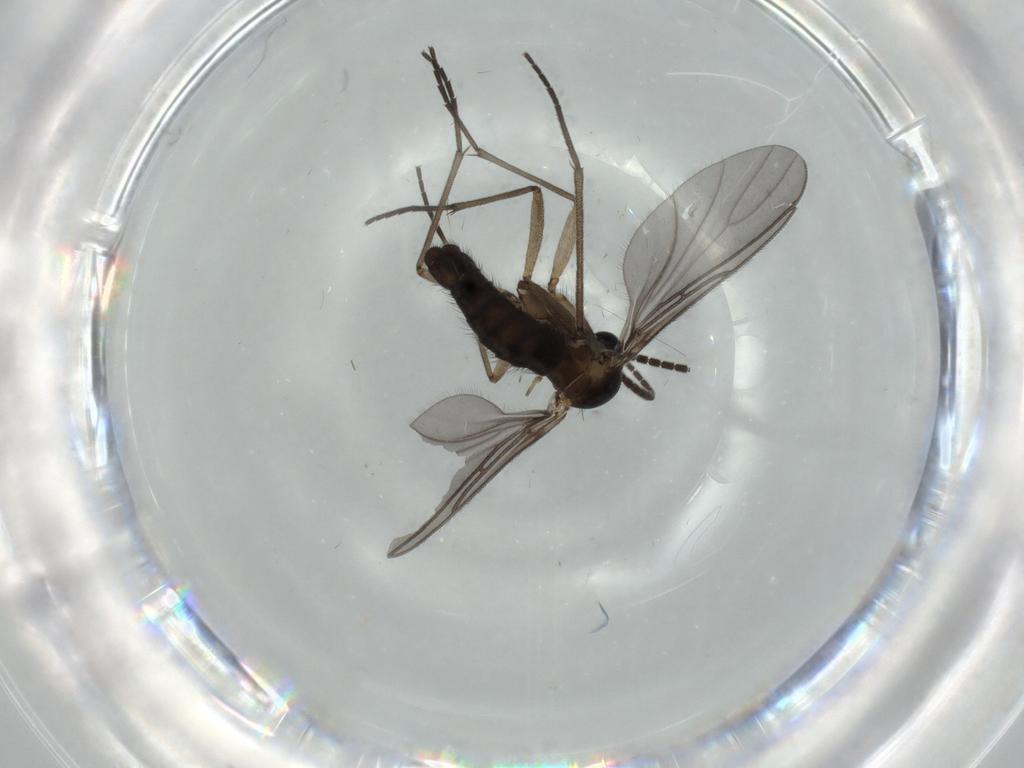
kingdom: Animalia
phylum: Arthropoda
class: Insecta
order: Diptera
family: Sciaridae
